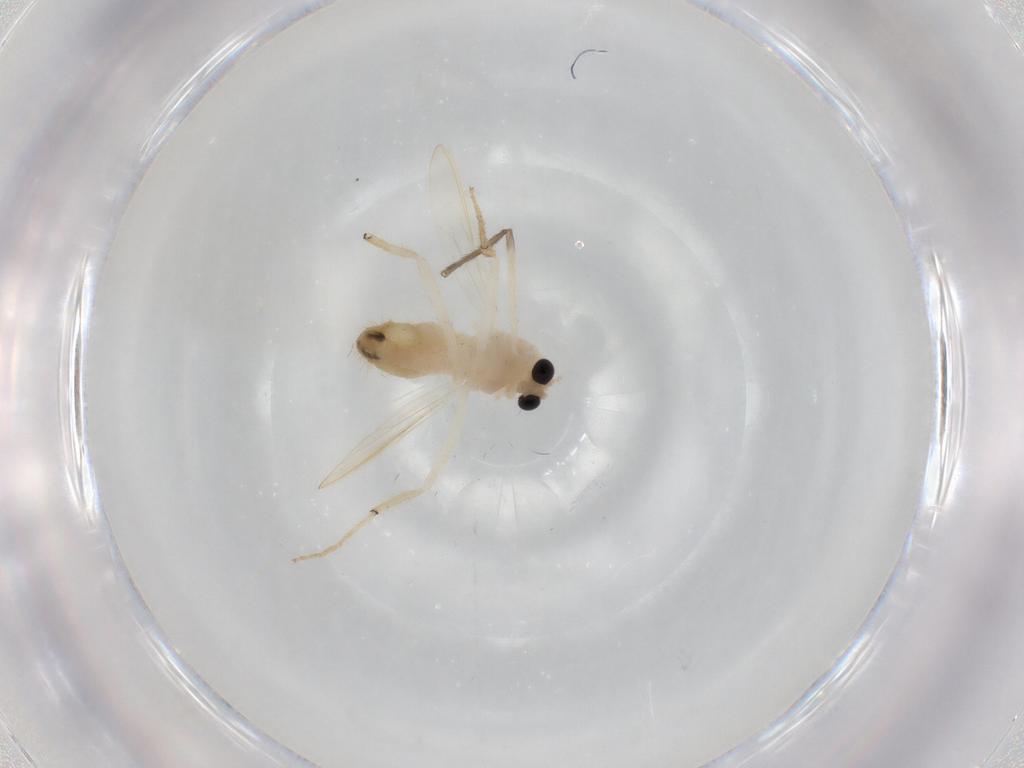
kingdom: Animalia
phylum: Arthropoda
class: Insecta
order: Diptera
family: Chironomidae
